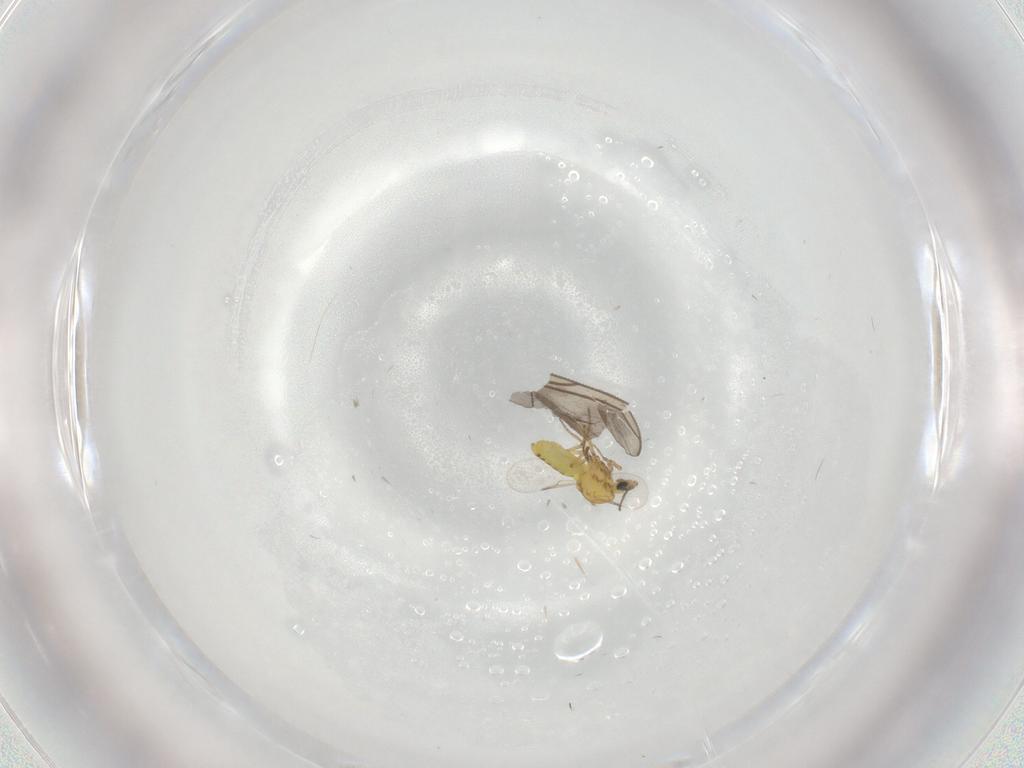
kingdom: Animalia
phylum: Arthropoda
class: Insecta
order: Diptera
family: Ceratopogonidae
